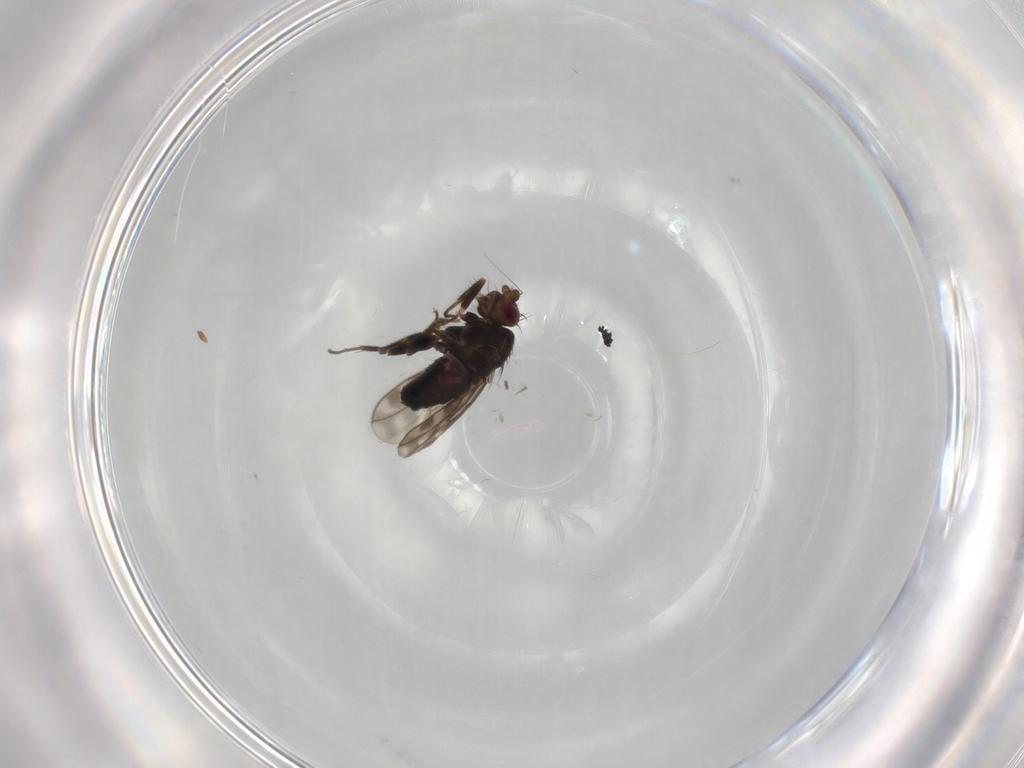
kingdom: Animalia
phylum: Arthropoda
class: Insecta
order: Diptera
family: Sphaeroceridae
